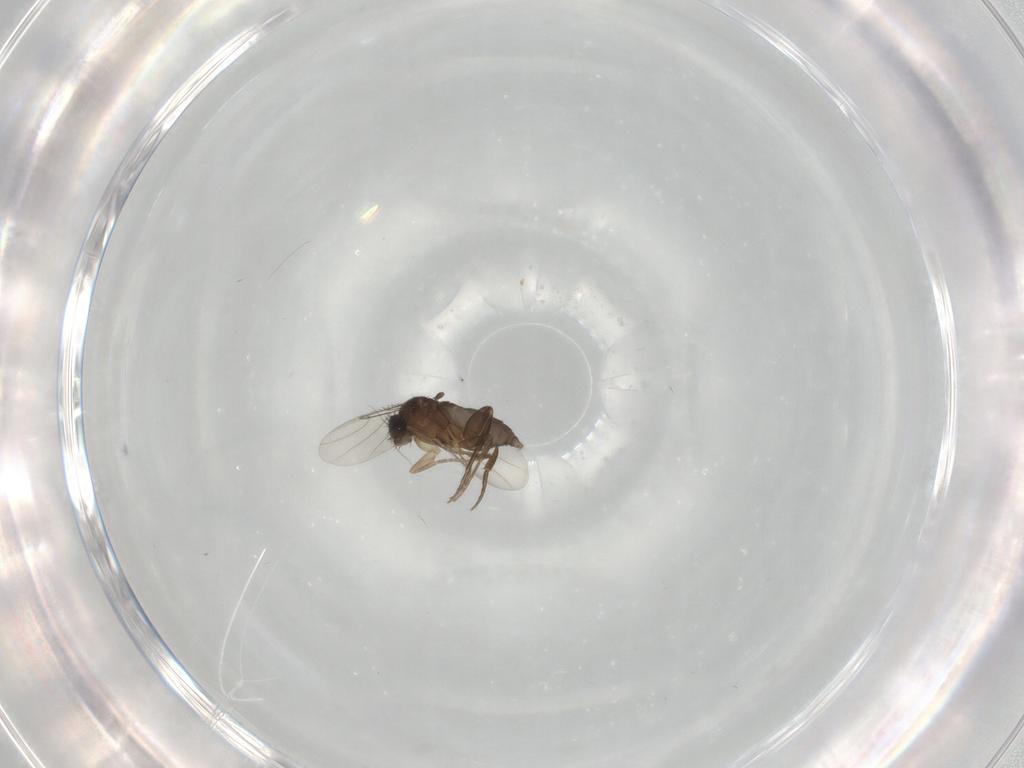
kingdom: Animalia
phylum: Arthropoda
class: Insecta
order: Diptera
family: Phoridae
